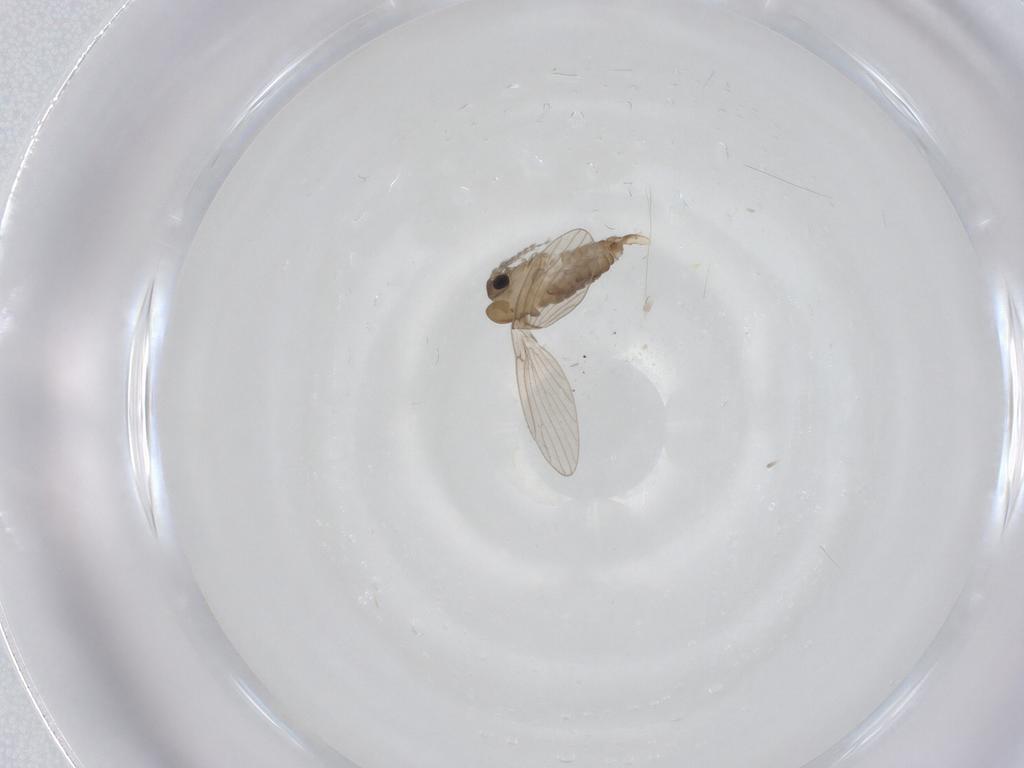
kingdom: Animalia
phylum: Arthropoda
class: Insecta
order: Diptera
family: Psychodidae
